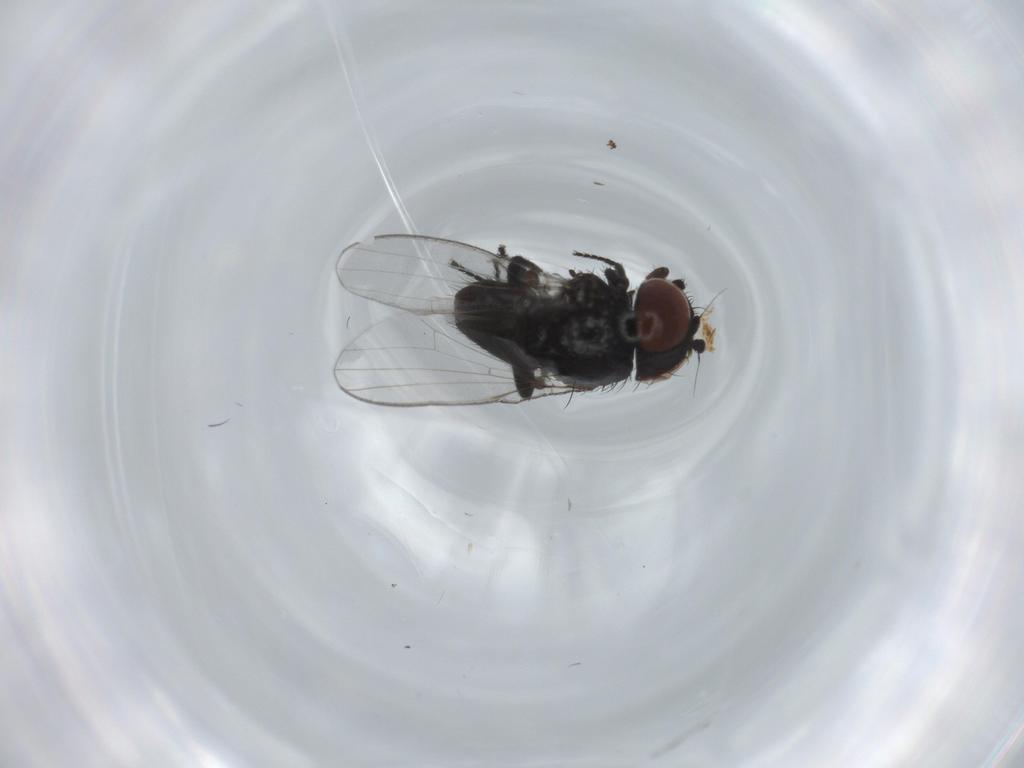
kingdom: Animalia
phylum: Arthropoda
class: Insecta
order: Diptera
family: Milichiidae
